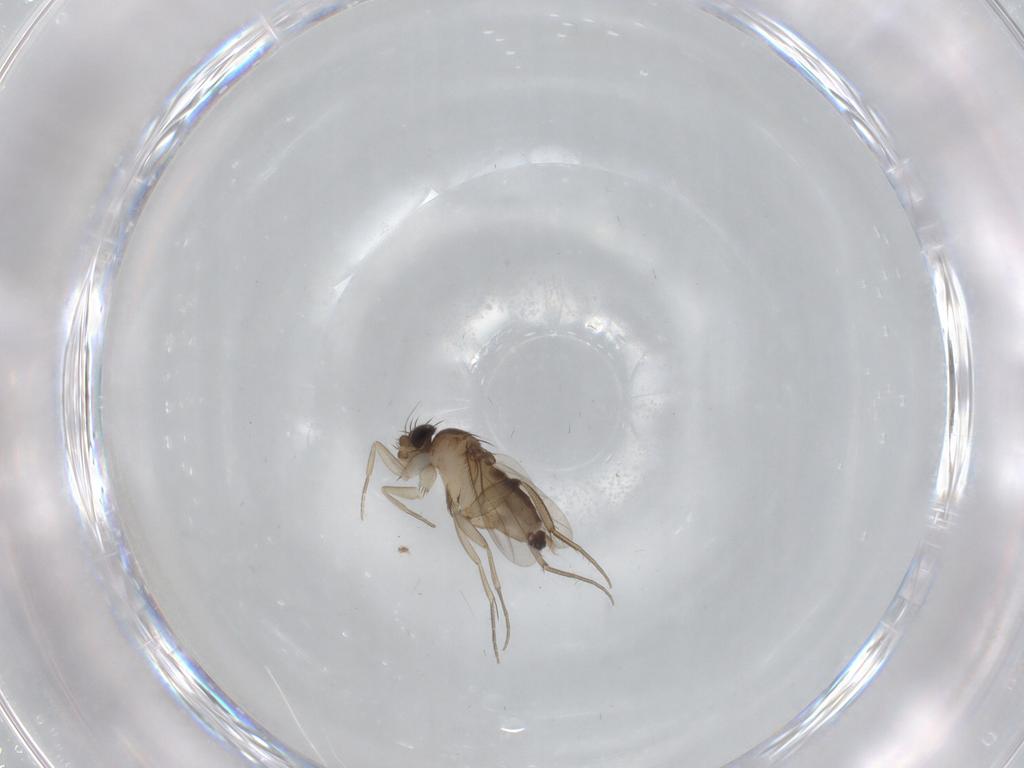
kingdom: Animalia
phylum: Arthropoda
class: Insecta
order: Diptera
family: Phoridae
